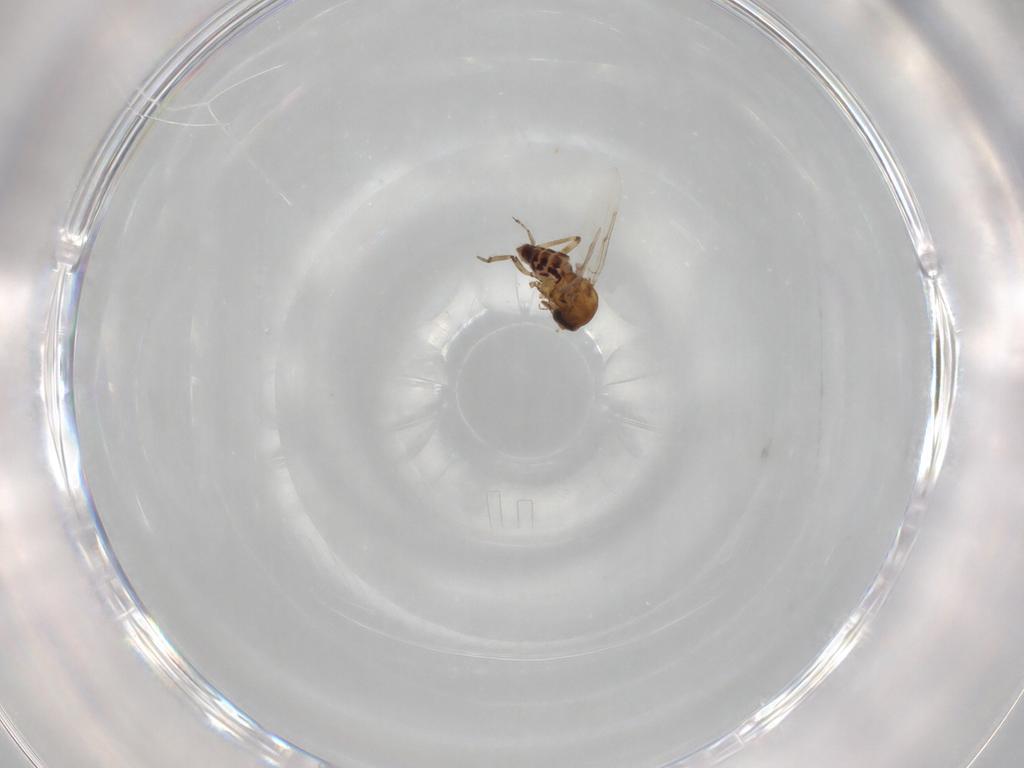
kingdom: Animalia
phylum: Arthropoda
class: Insecta
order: Diptera
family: Ceratopogonidae
